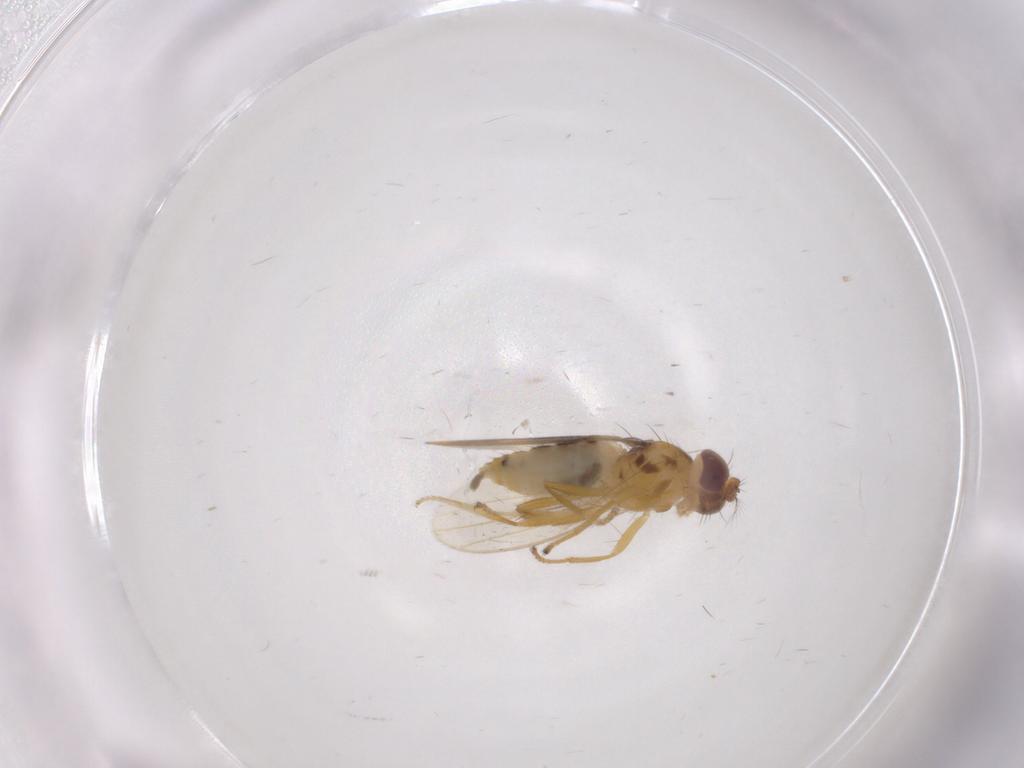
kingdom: Animalia
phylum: Arthropoda
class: Insecta
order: Diptera
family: Periscelididae
